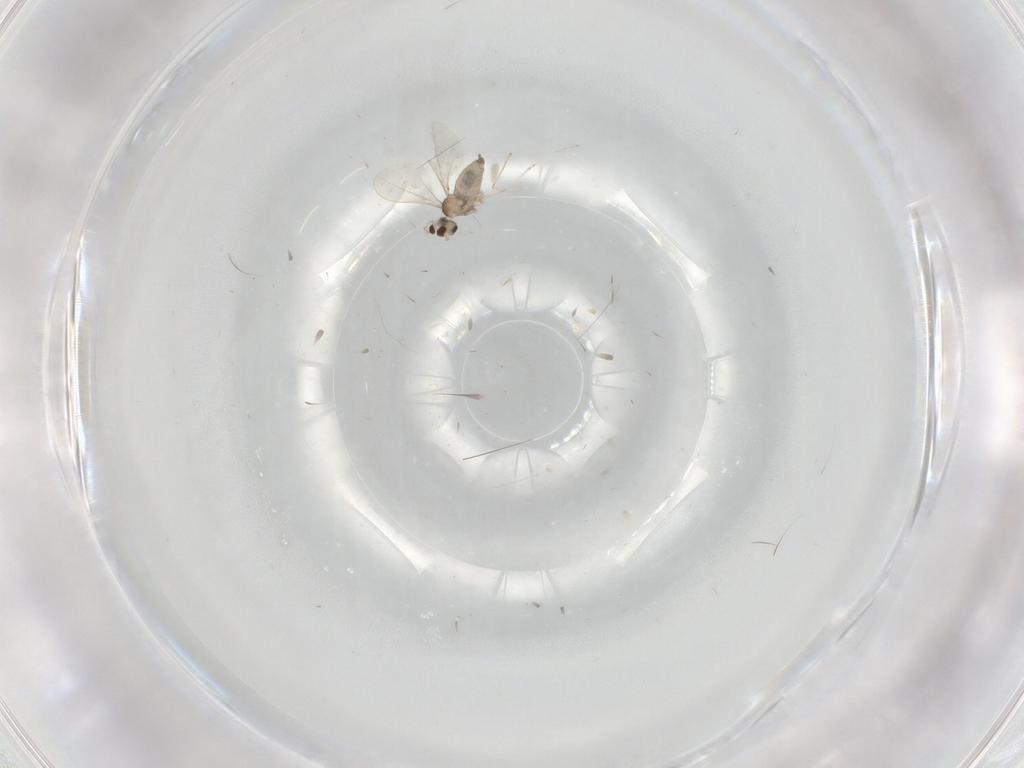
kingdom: Animalia
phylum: Arthropoda
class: Insecta
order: Diptera
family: Cecidomyiidae
